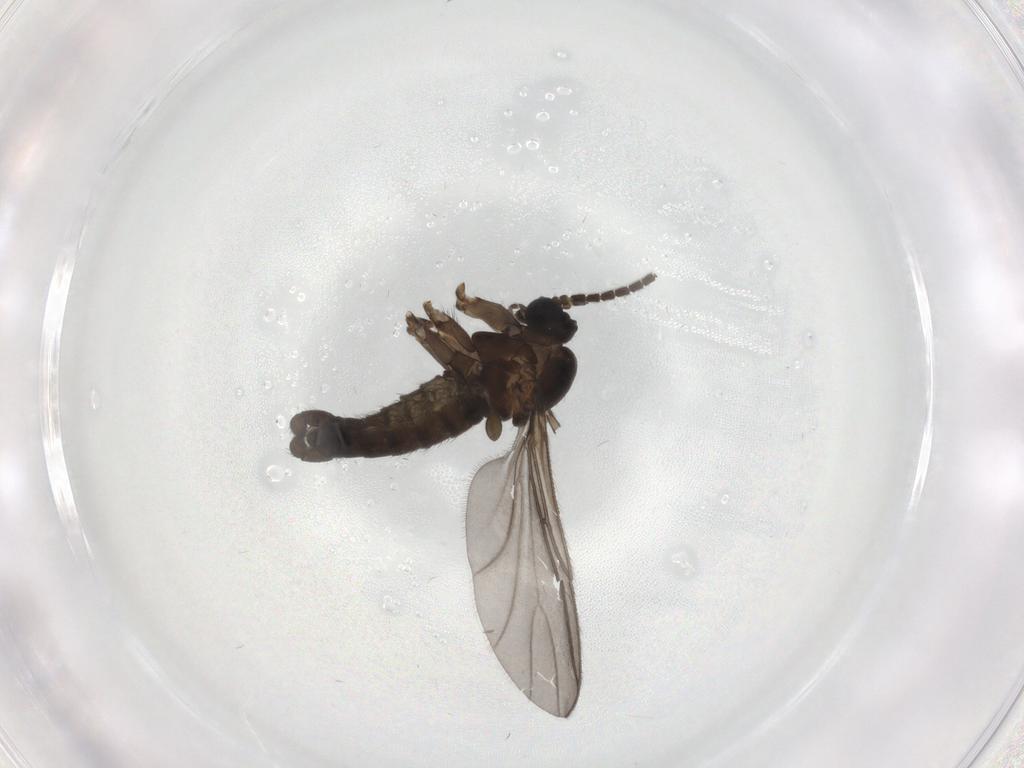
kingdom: Animalia
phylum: Arthropoda
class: Insecta
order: Diptera
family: Sciaridae
